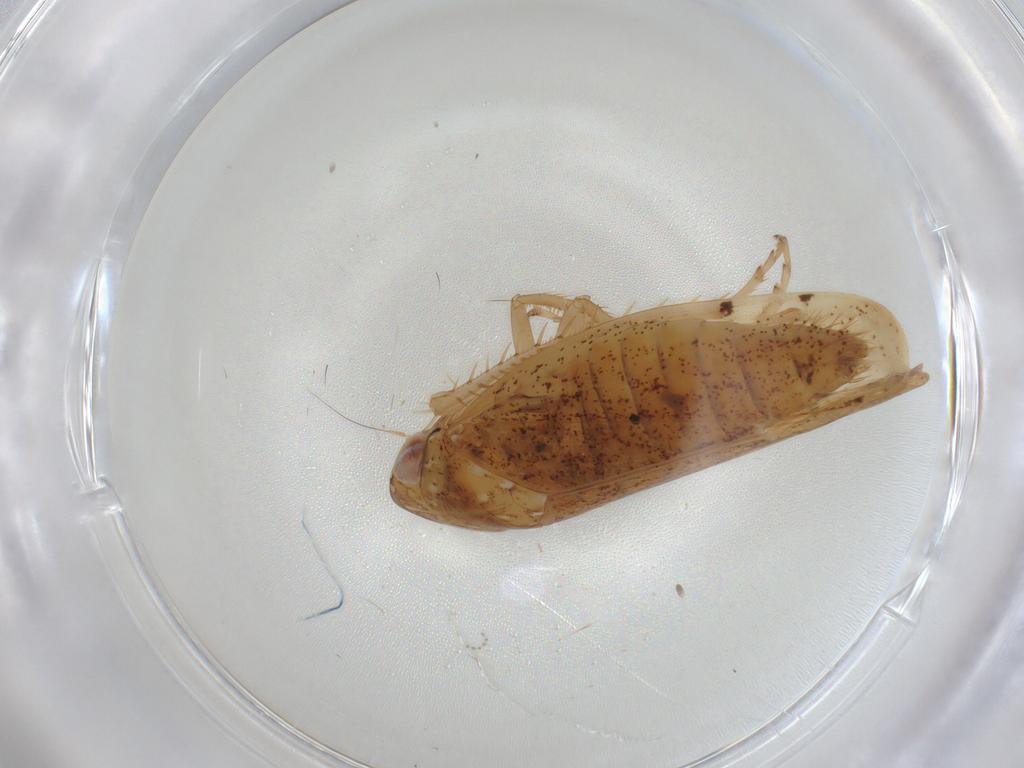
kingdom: Animalia
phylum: Arthropoda
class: Insecta
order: Hemiptera
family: Cicadellidae
